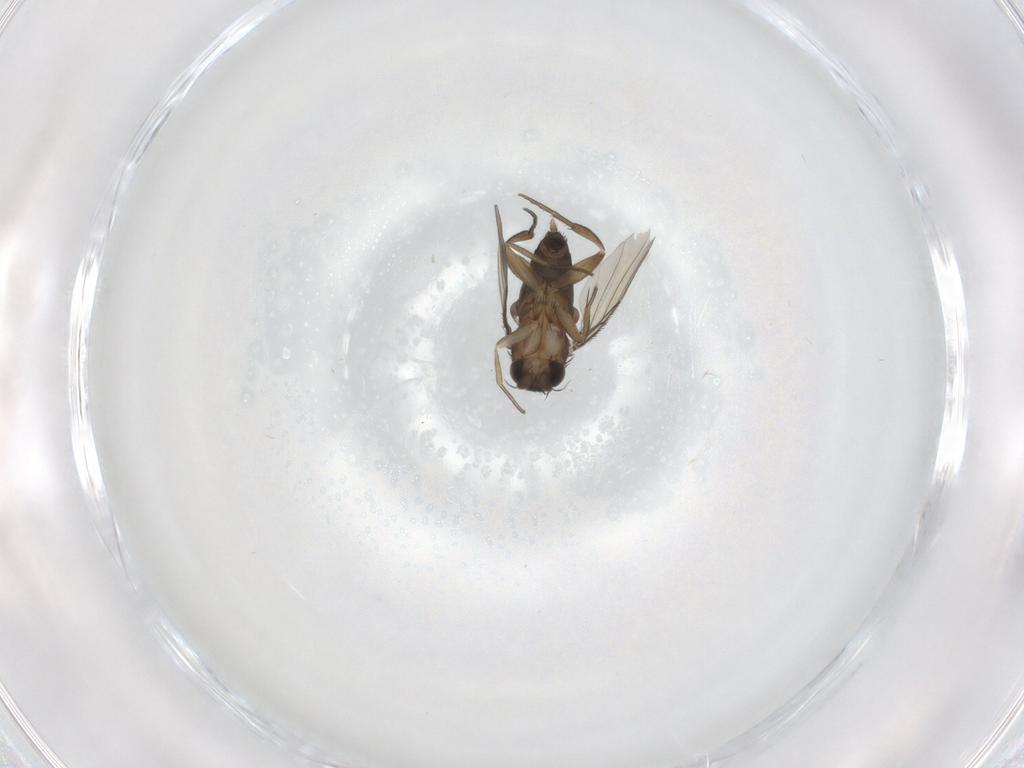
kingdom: Animalia
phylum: Arthropoda
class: Insecta
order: Diptera
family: Phoridae
